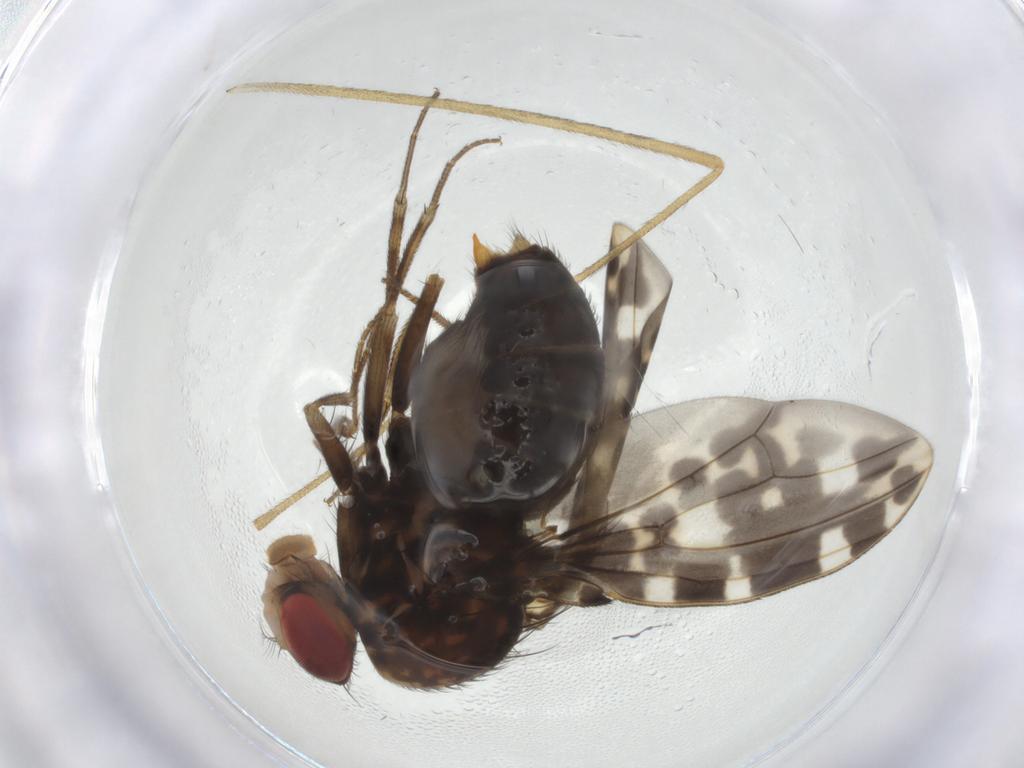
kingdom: Animalia
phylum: Arthropoda
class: Insecta
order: Diptera
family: Drosophilidae
